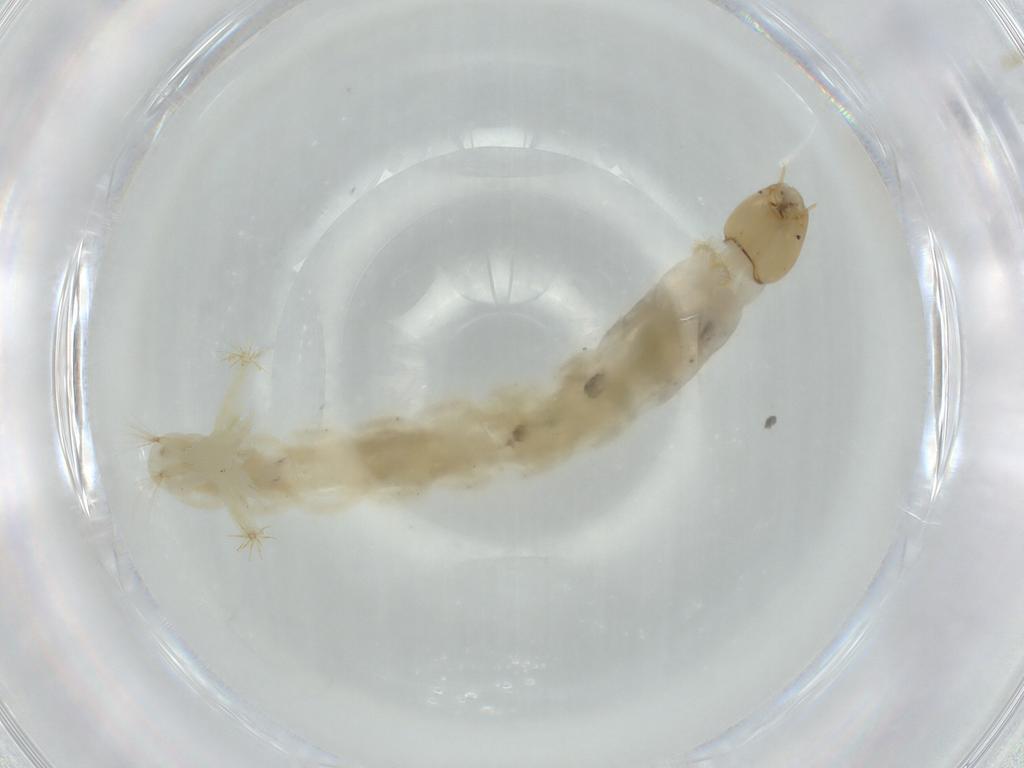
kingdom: Animalia
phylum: Arthropoda
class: Insecta
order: Diptera
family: Chironomidae
